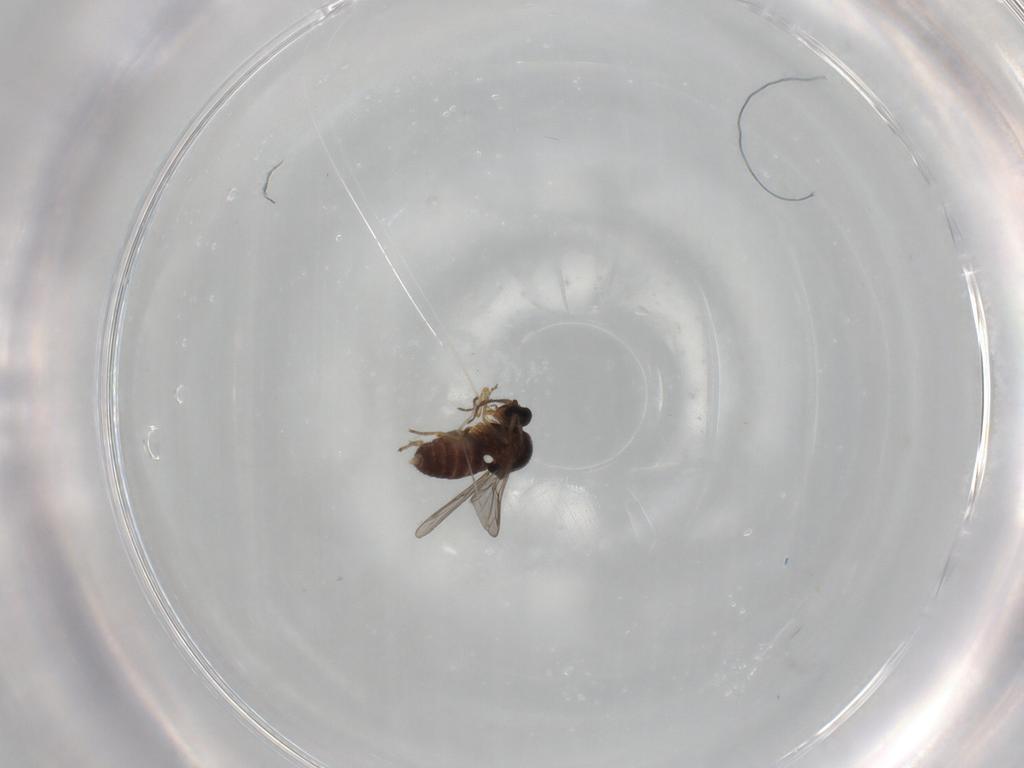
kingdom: Animalia
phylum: Arthropoda
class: Insecta
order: Diptera
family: Ceratopogonidae
